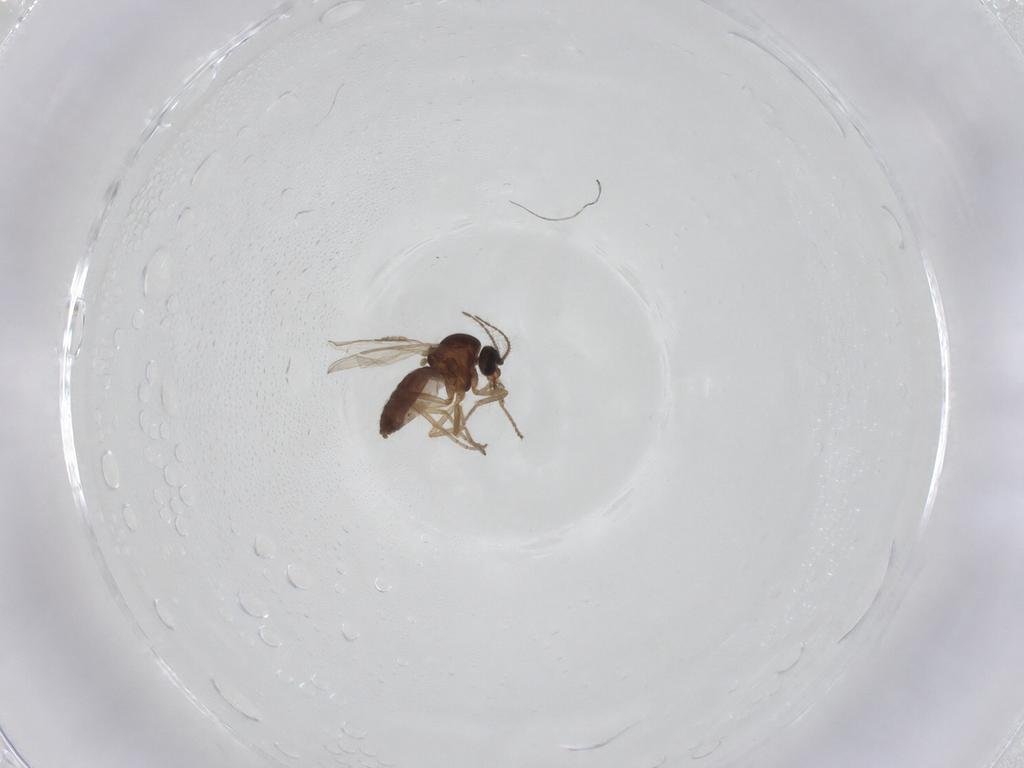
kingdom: Animalia
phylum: Arthropoda
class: Insecta
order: Diptera
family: Ceratopogonidae
